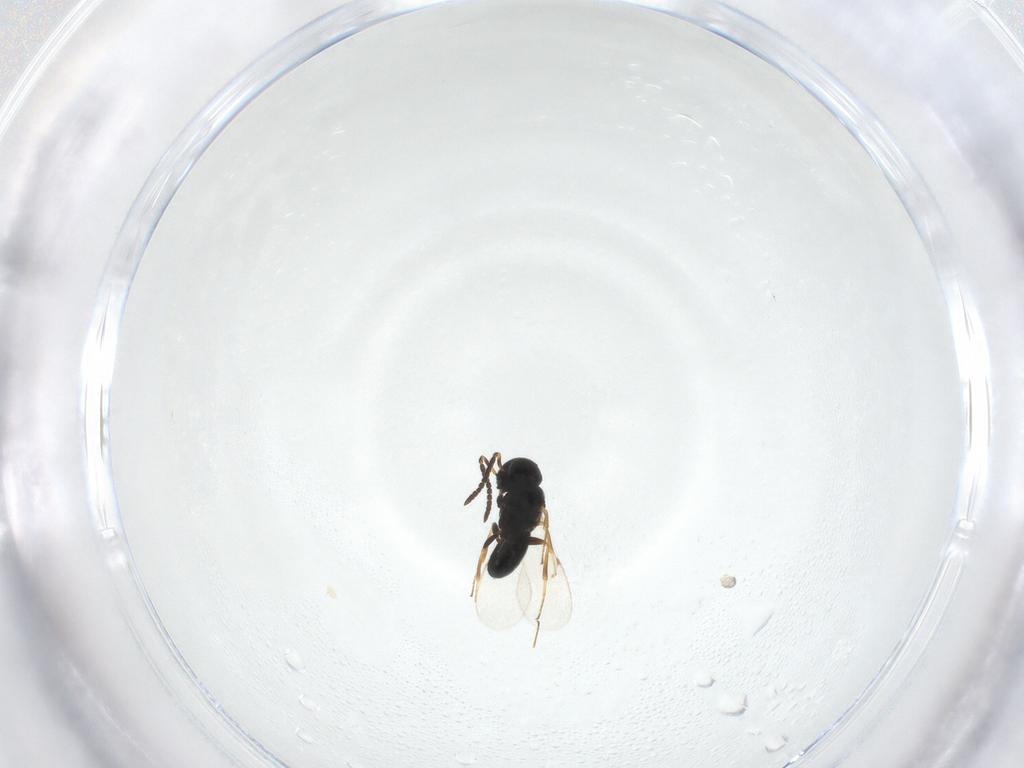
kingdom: Animalia
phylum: Arthropoda
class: Insecta
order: Hymenoptera
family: Scelionidae
